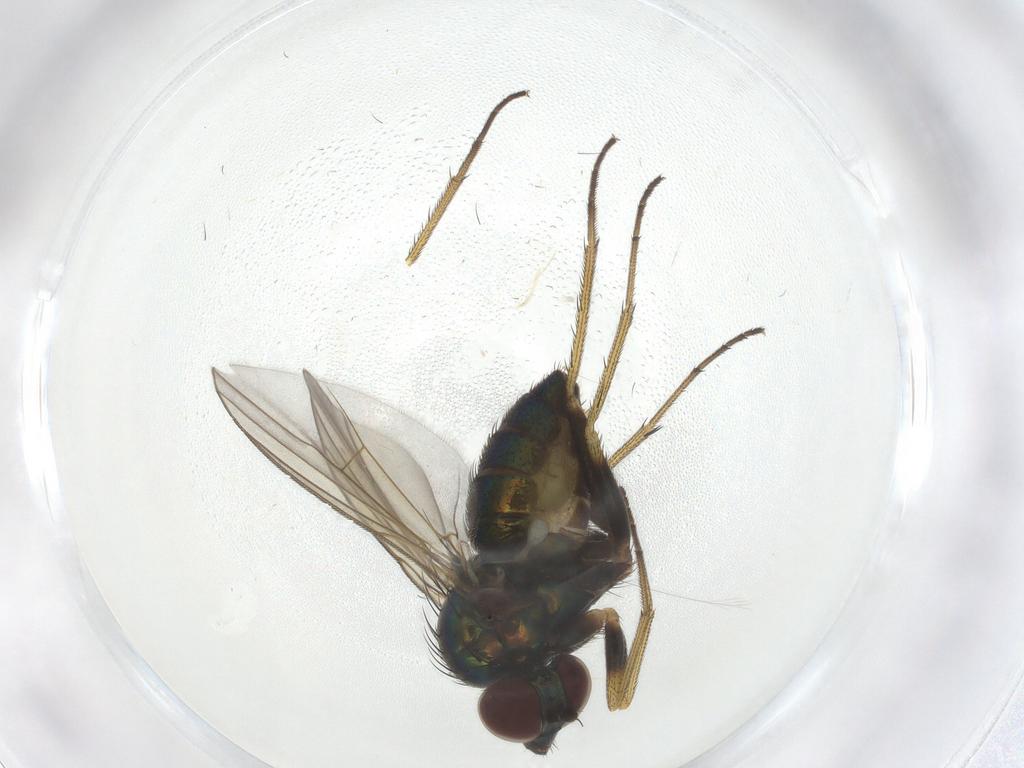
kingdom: Animalia
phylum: Arthropoda
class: Insecta
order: Diptera
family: Dolichopodidae
